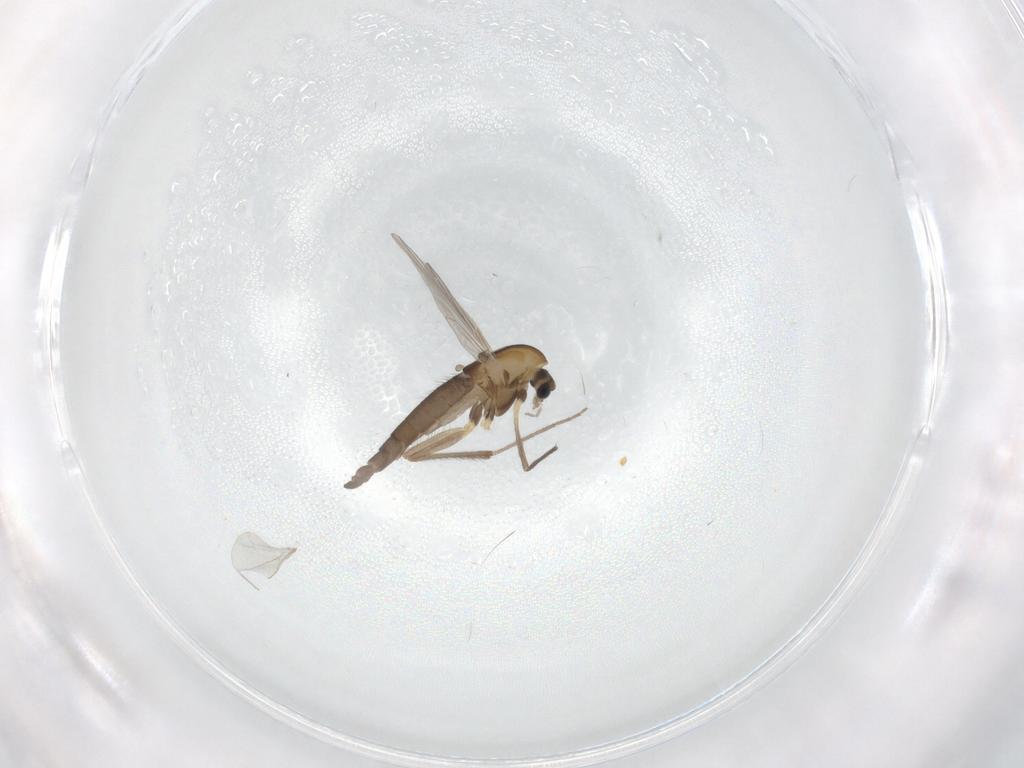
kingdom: Animalia
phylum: Arthropoda
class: Insecta
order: Diptera
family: Chironomidae
